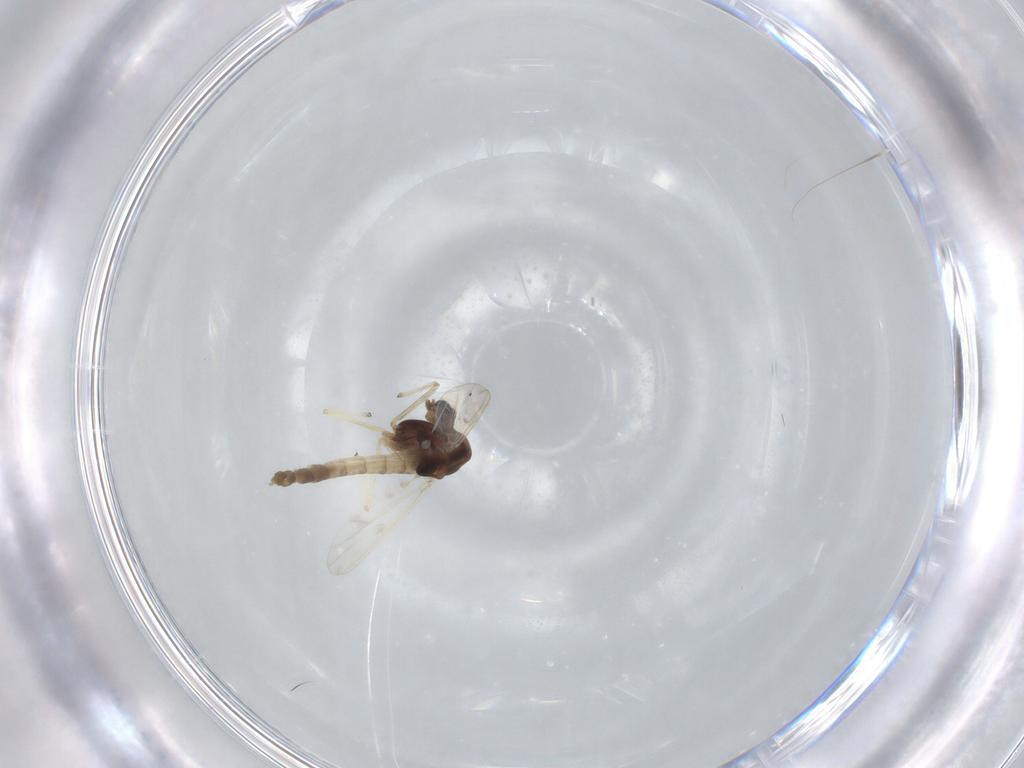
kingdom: Animalia
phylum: Arthropoda
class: Insecta
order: Diptera
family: Chironomidae
